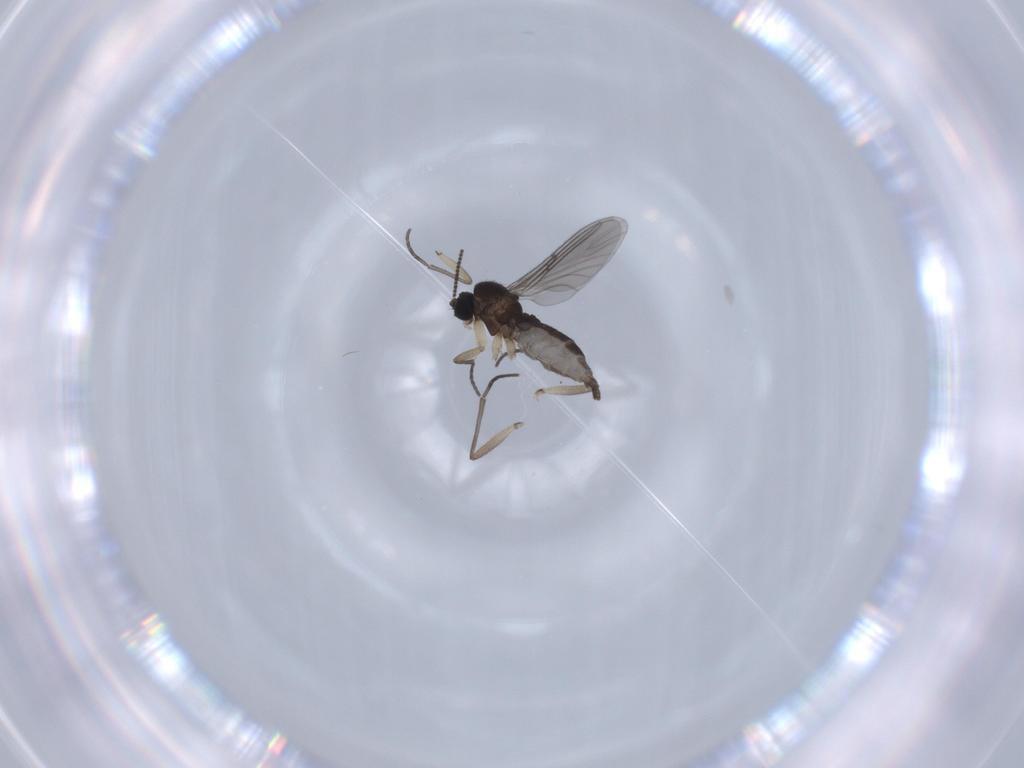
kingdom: Animalia
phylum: Arthropoda
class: Insecta
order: Diptera
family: Sciaridae
